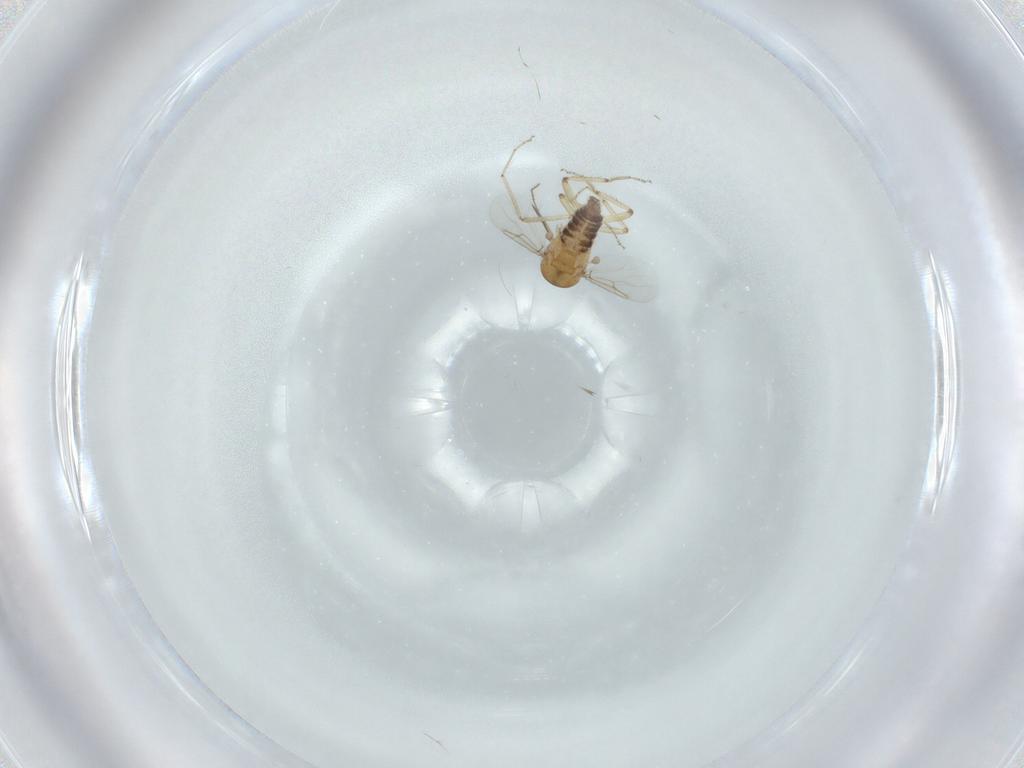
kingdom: Animalia
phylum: Arthropoda
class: Insecta
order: Diptera
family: Ceratopogonidae
